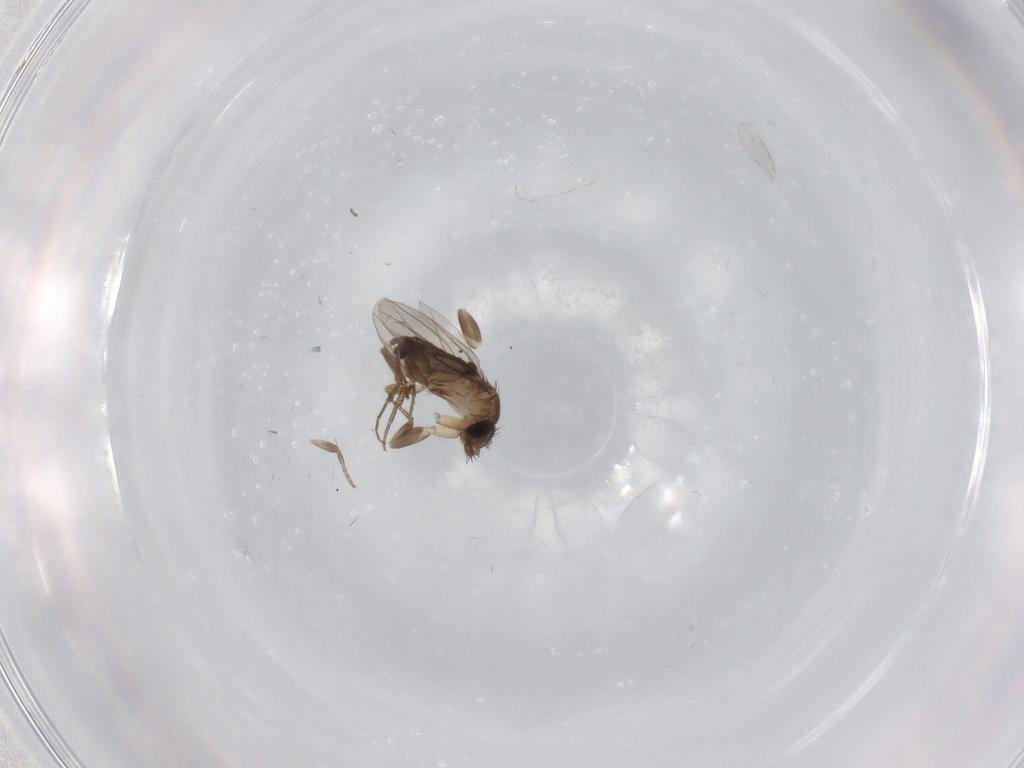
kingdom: Animalia
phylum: Arthropoda
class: Insecta
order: Diptera
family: Phoridae
